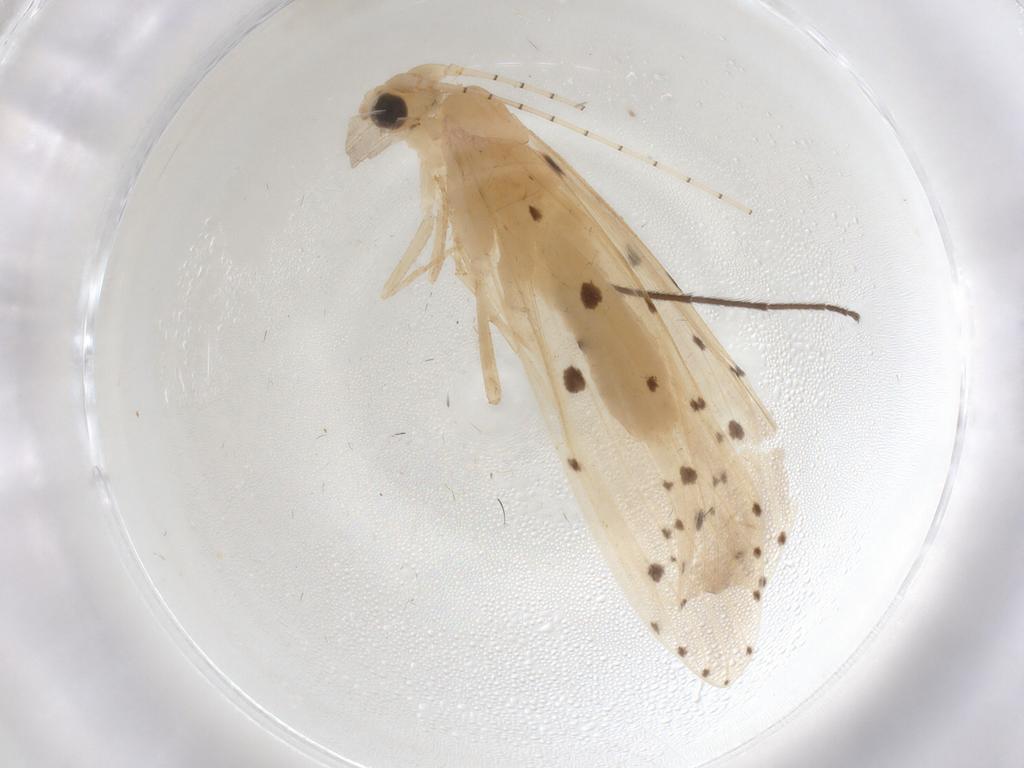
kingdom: Animalia
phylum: Arthropoda
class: Insecta
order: Trichoptera
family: Leptoceridae
